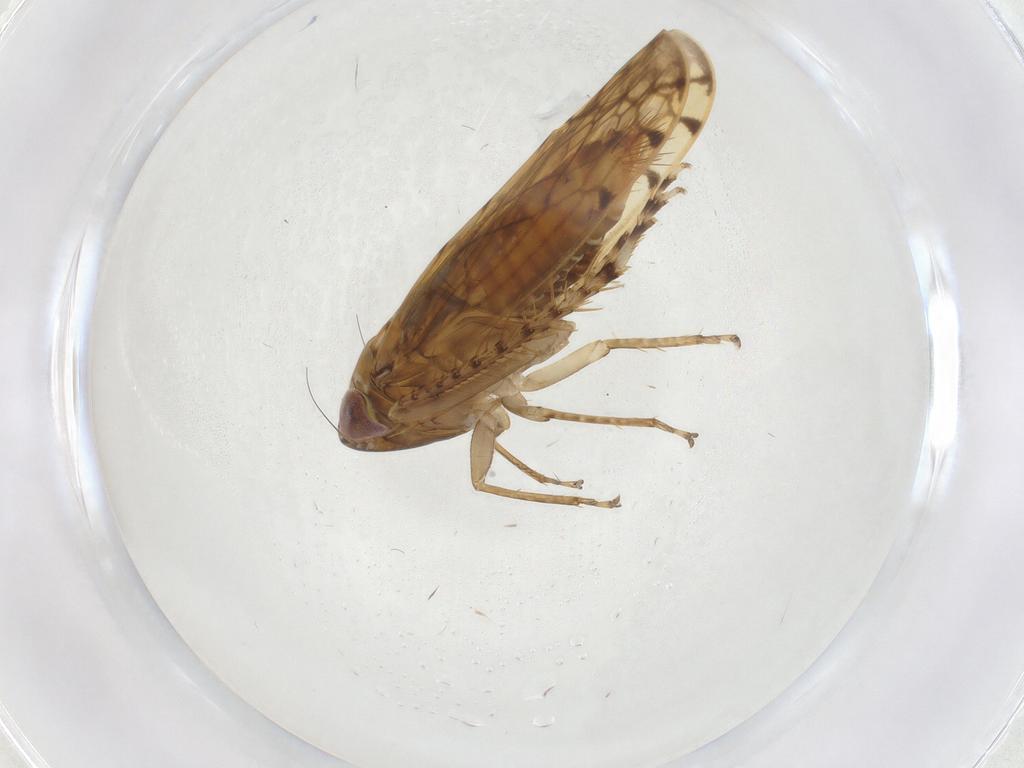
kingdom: Animalia
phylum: Arthropoda
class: Insecta
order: Hemiptera
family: Cicadellidae
